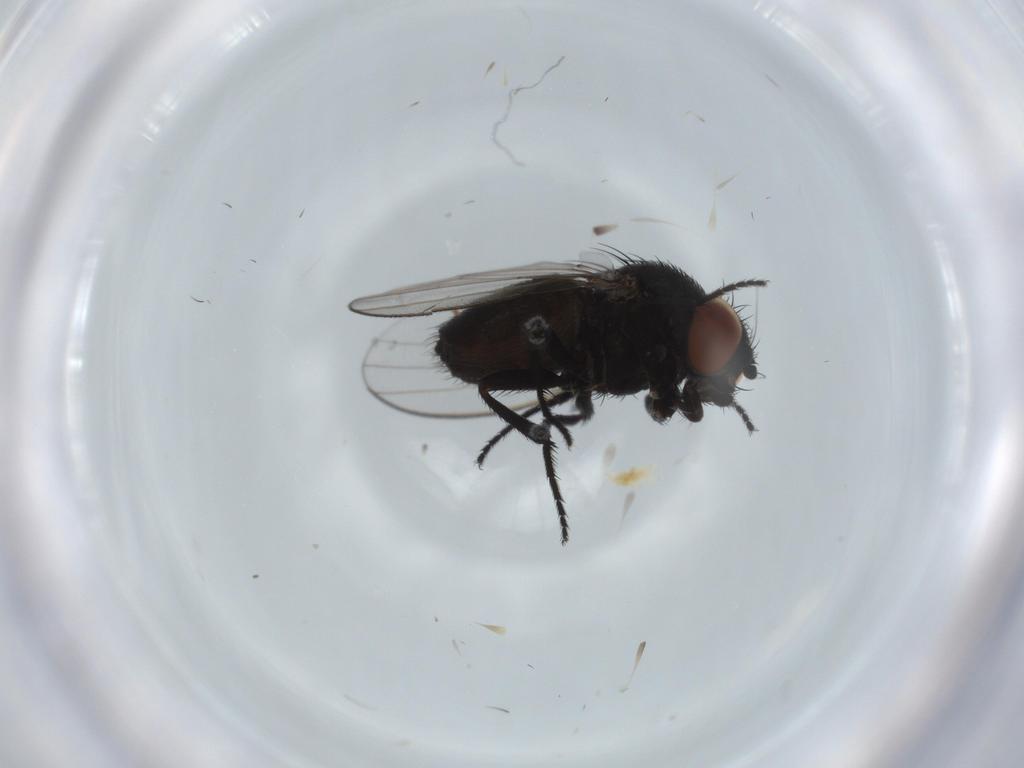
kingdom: Animalia
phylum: Arthropoda
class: Insecta
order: Diptera
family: Milichiidae
